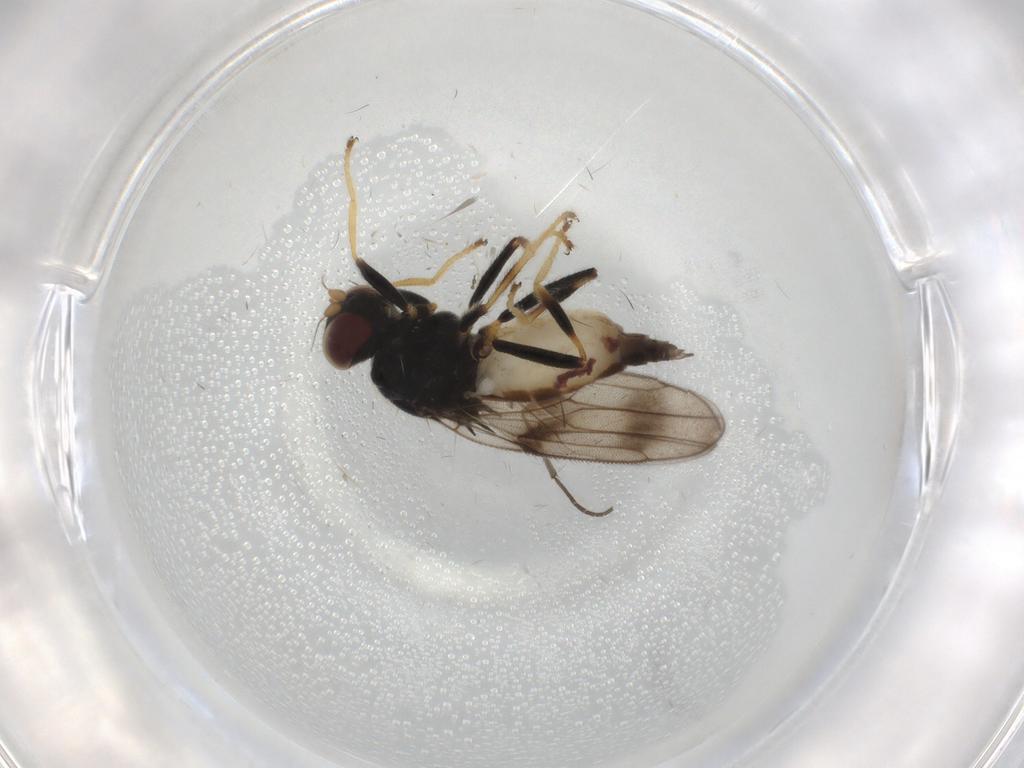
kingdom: Animalia
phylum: Arthropoda
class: Insecta
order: Diptera
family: Chloropidae
